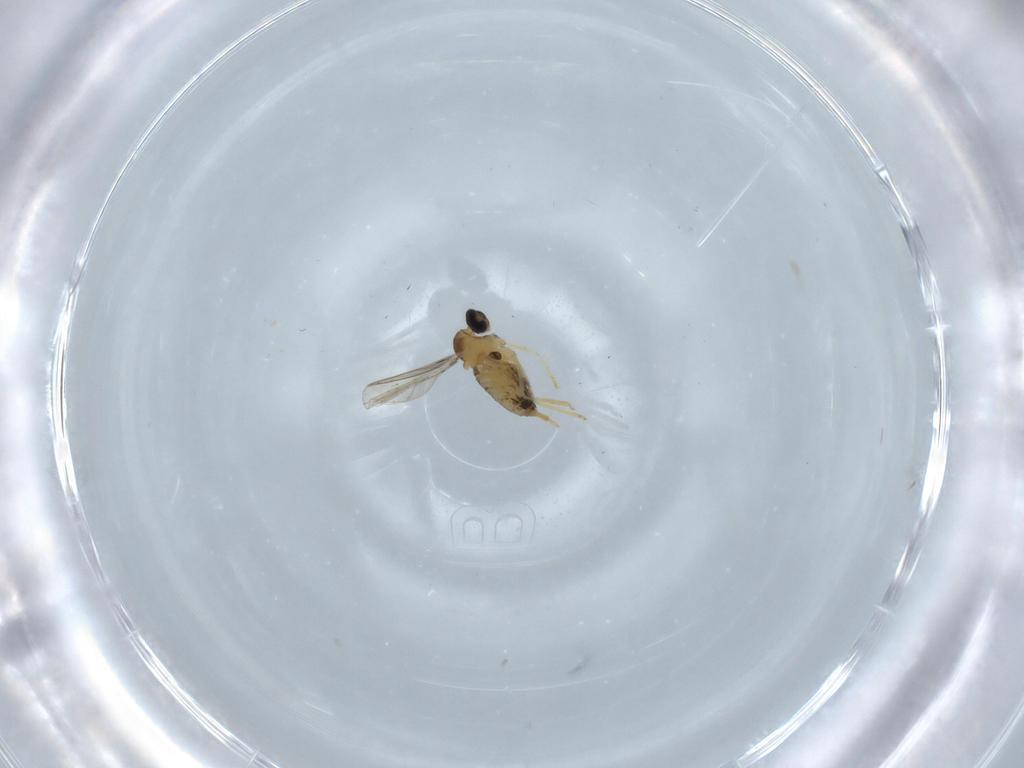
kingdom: Animalia
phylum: Arthropoda
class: Insecta
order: Diptera
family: Cecidomyiidae
